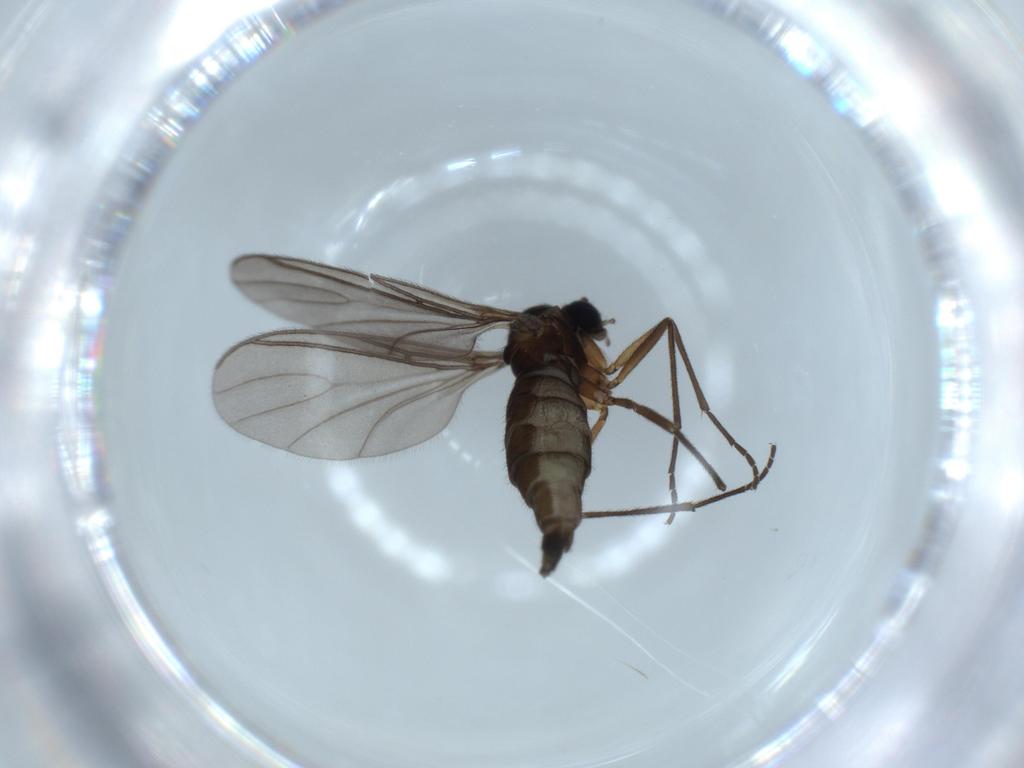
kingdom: Animalia
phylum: Arthropoda
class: Insecta
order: Diptera
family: Sciaridae
